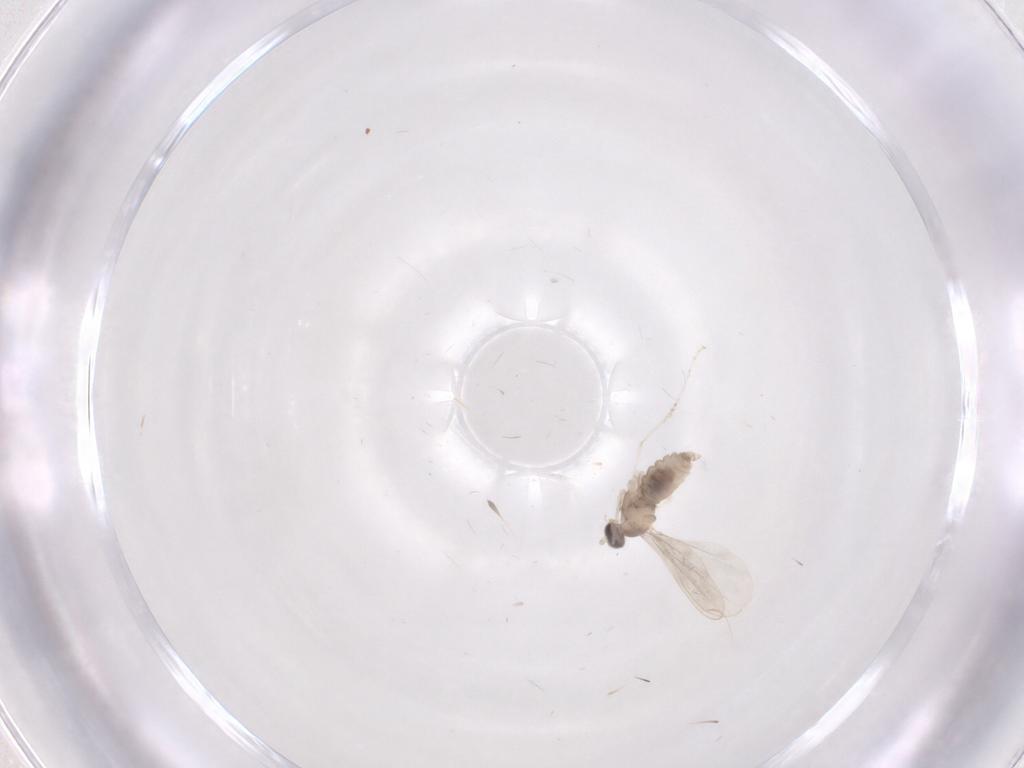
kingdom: Animalia
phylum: Arthropoda
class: Insecta
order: Diptera
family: Cecidomyiidae
